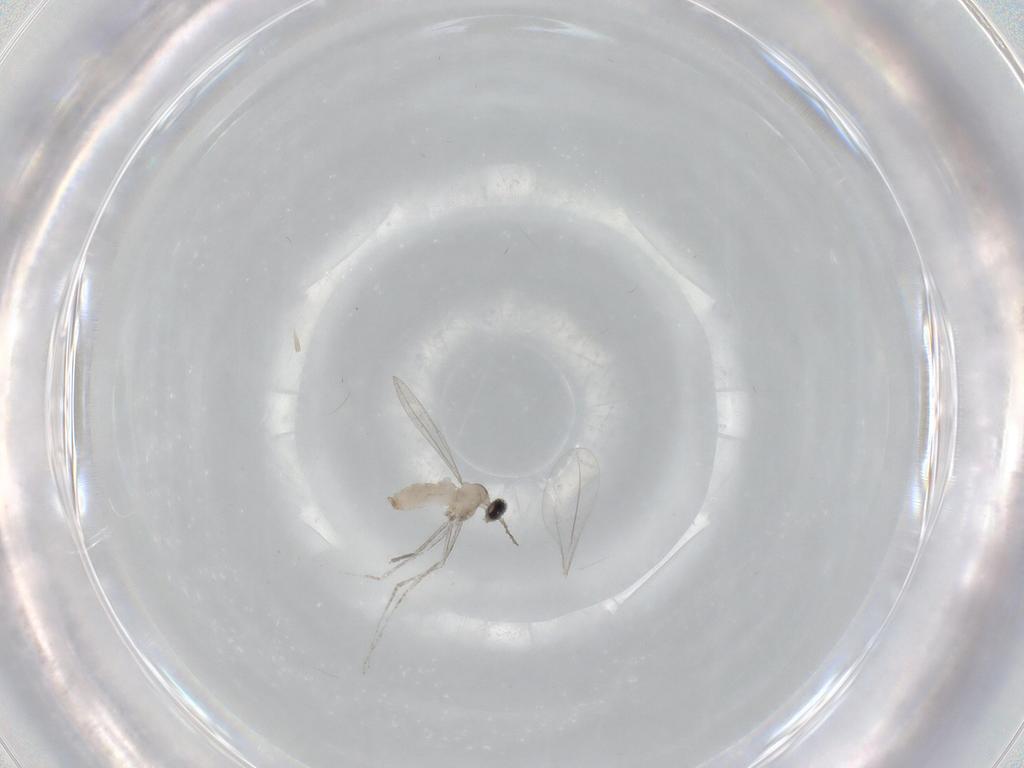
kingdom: Animalia
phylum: Arthropoda
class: Insecta
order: Diptera
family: Cecidomyiidae
